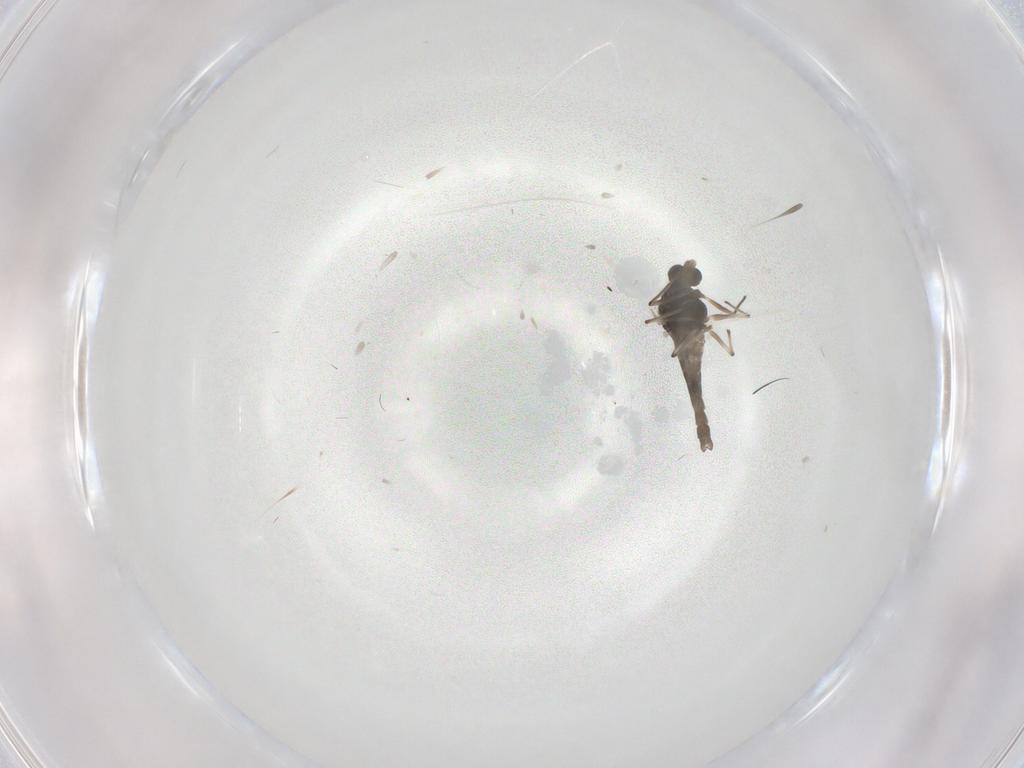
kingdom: Animalia
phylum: Arthropoda
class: Insecta
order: Diptera
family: Chironomidae
